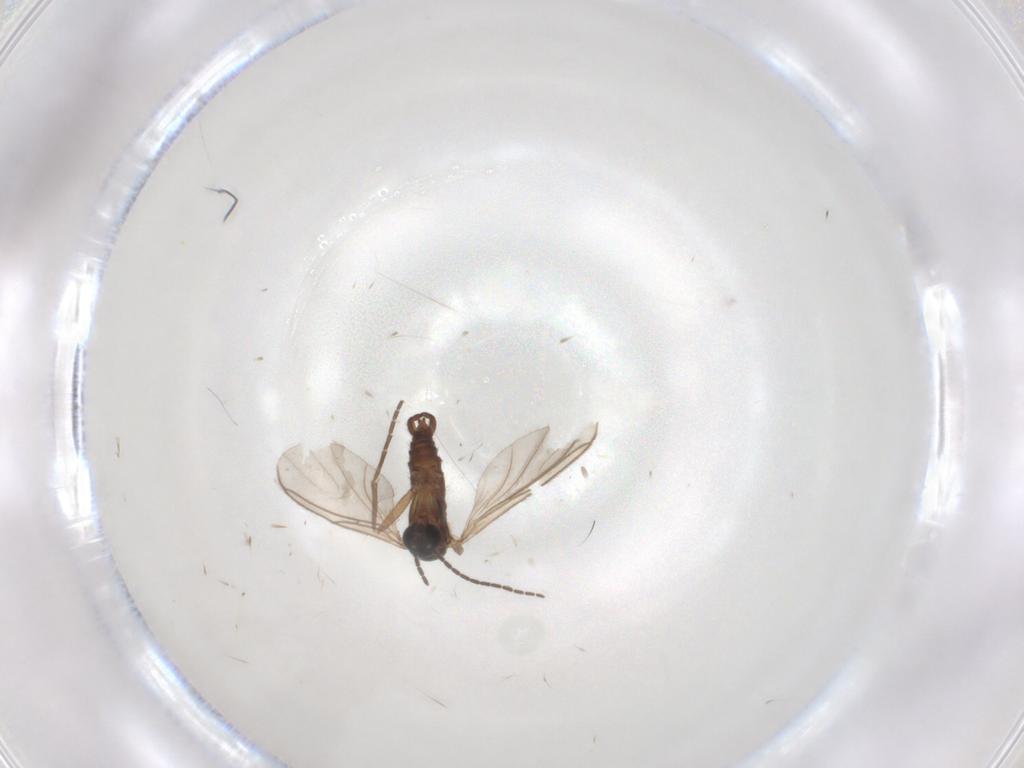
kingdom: Animalia
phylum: Arthropoda
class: Insecta
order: Diptera
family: Sciaridae
